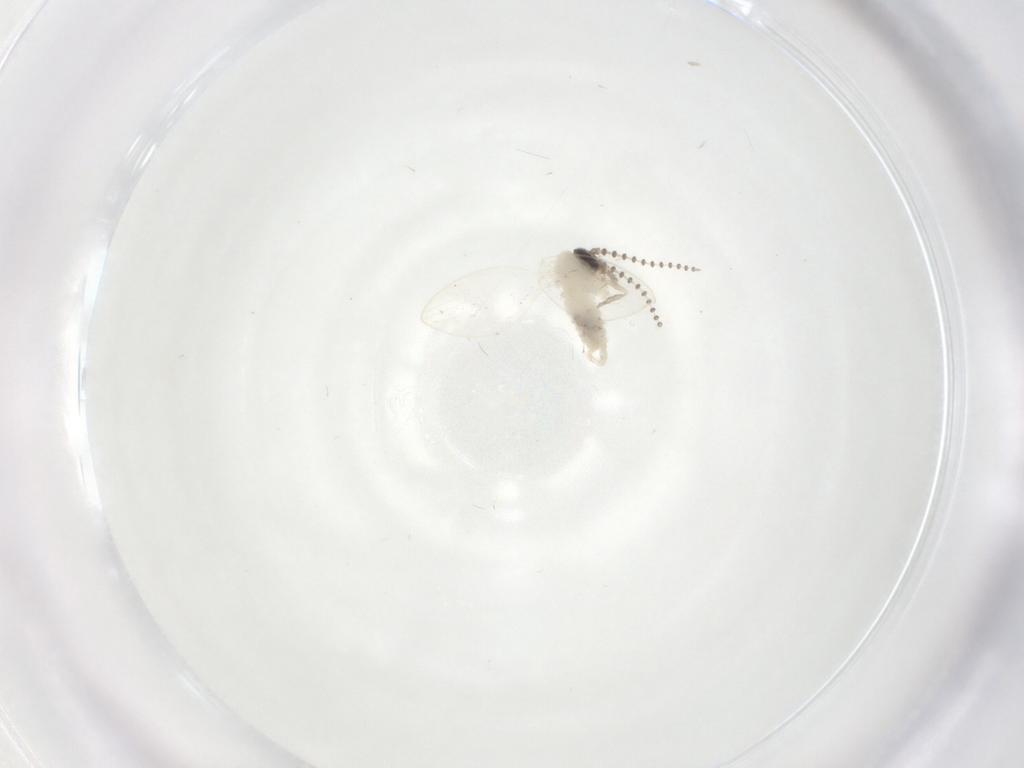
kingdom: Animalia
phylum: Arthropoda
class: Insecta
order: Diptera
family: Psychodidae
